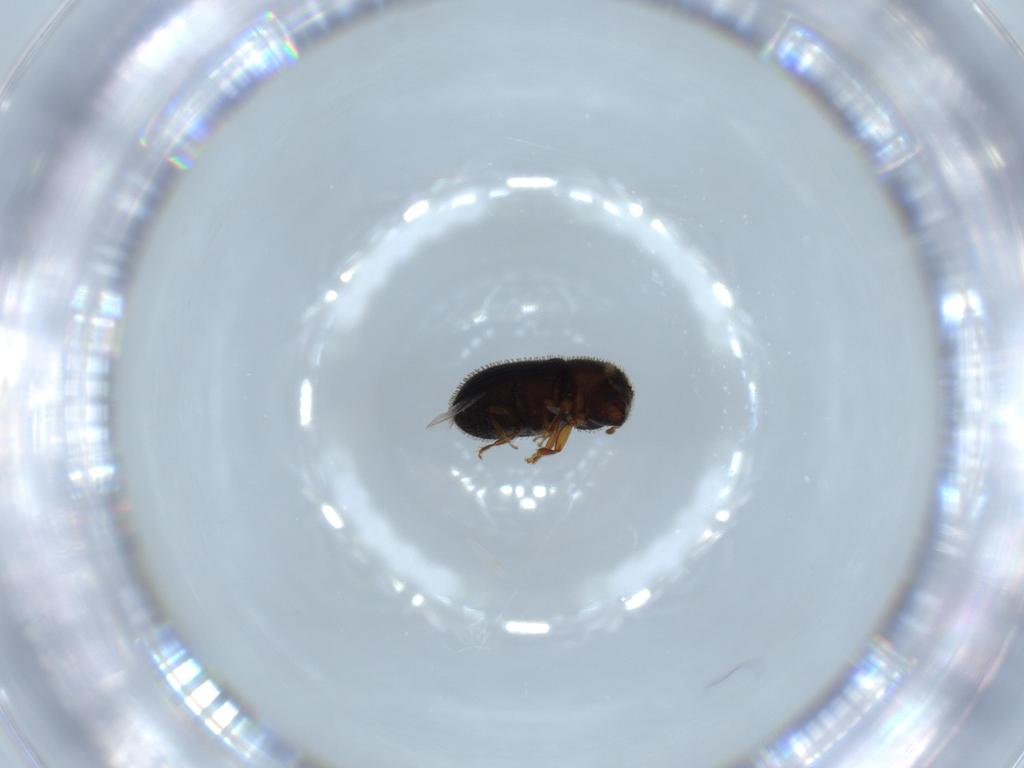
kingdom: Animalia
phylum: Arthropoda
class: Insecta
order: Coleoptera
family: Curculionidae
